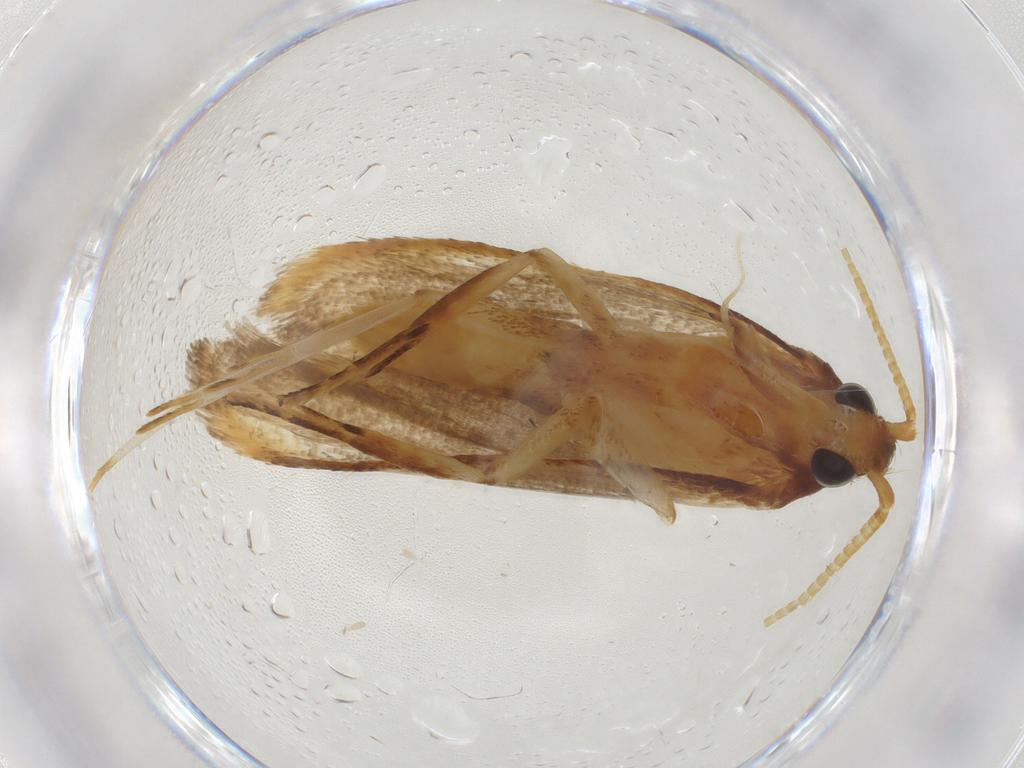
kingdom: Animalia
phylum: Arthropoda
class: Insecta
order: Lepidoptera
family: Lecithoceridae
